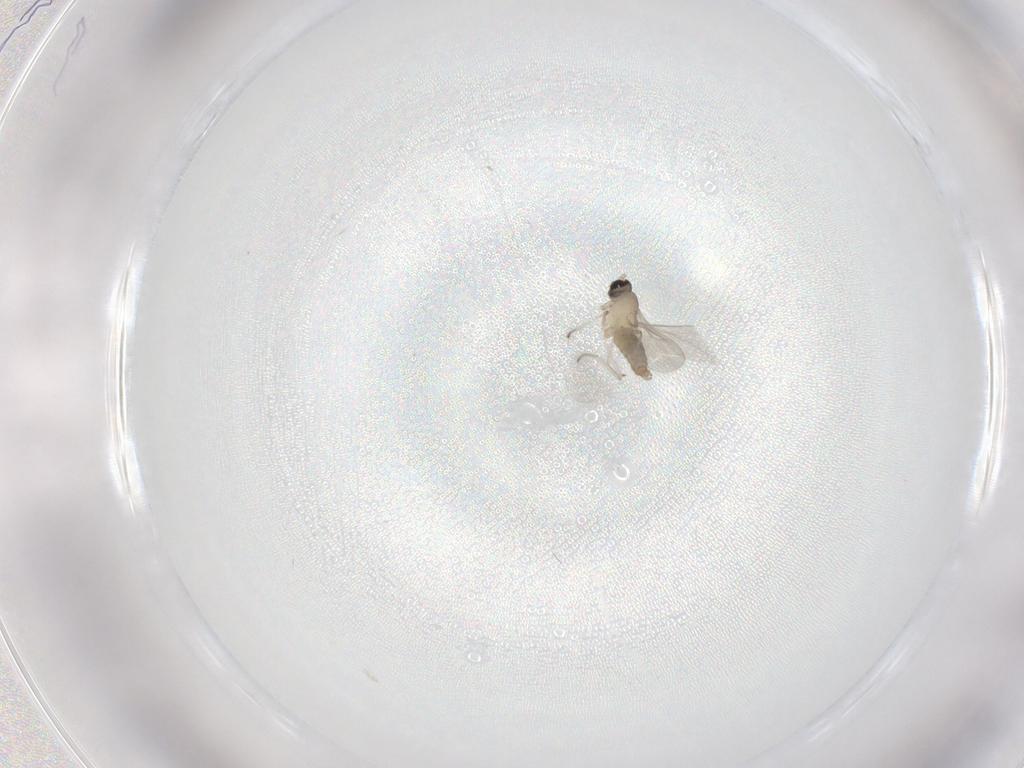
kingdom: Animalia
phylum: Arthropoda
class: Insecta
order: Diptera
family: Cecidomyiidae
